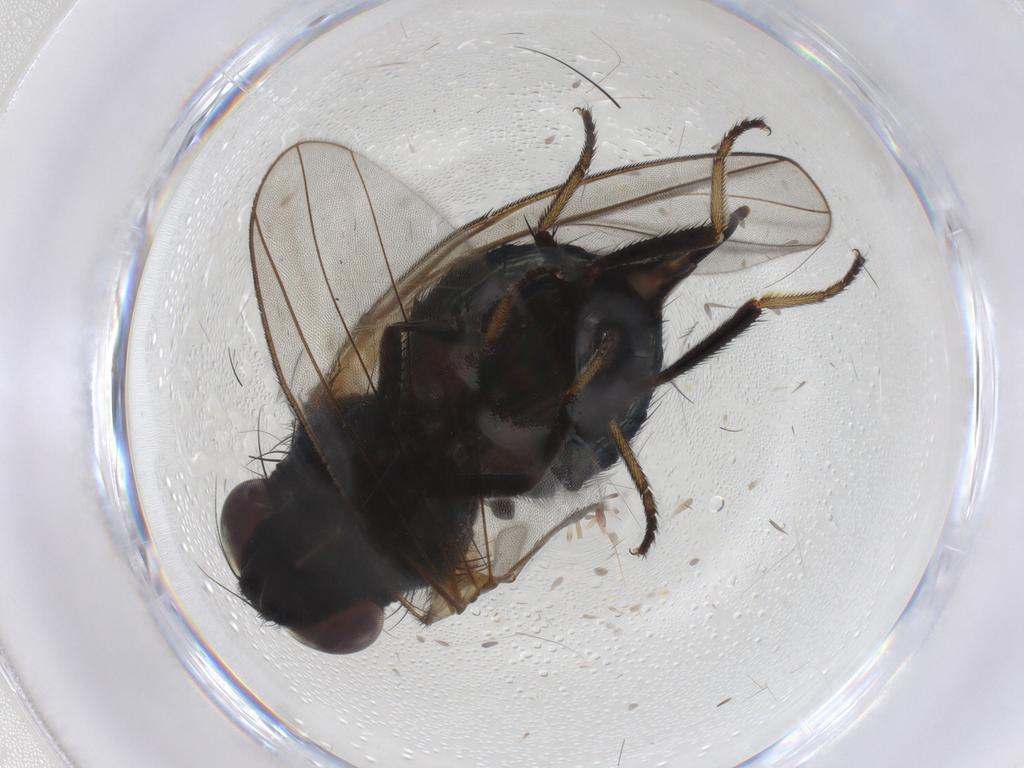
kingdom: Animalia
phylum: Arthropoda
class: Insecta
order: Diptera
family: Lonchaeidae
